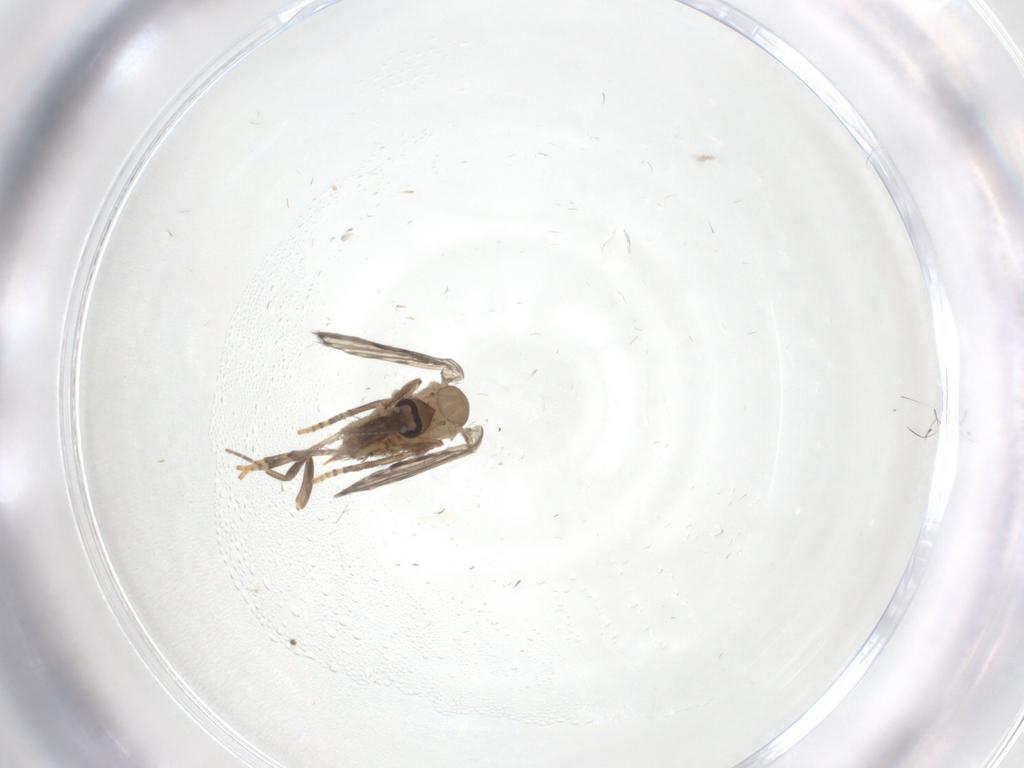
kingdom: Animalia
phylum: Arthropoda
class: Insecta
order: Diptera
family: Psychodidae
